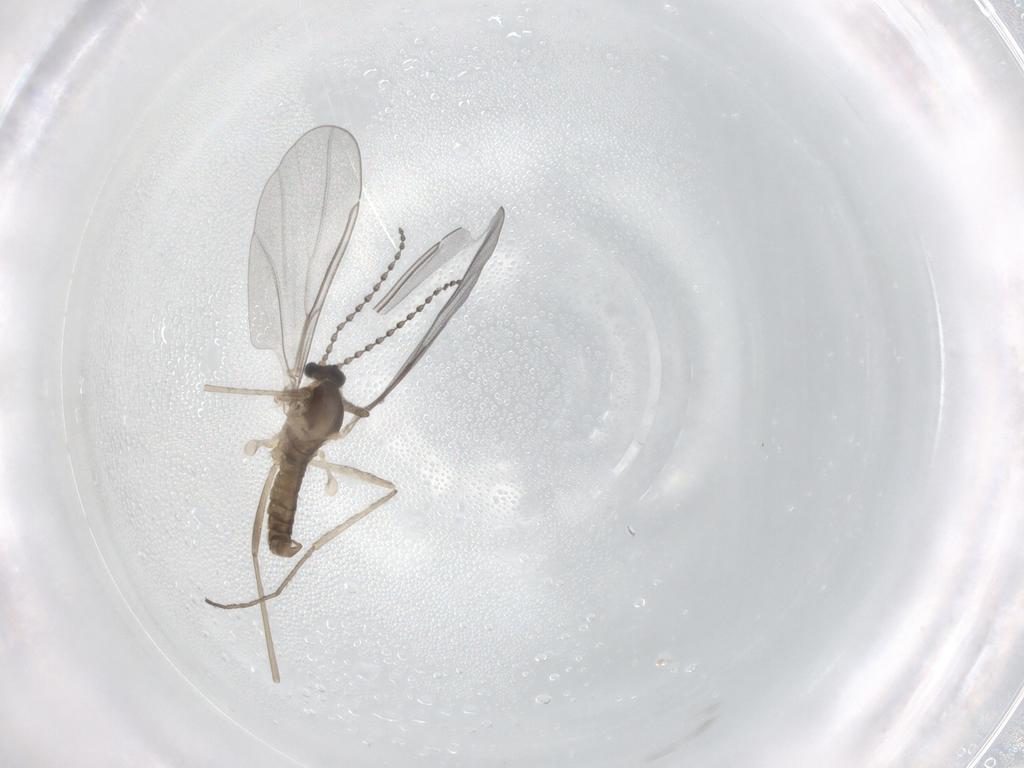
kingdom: Animalia
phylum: Arthropoda
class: Insecta
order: Diptera
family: Cecidomyiidae
